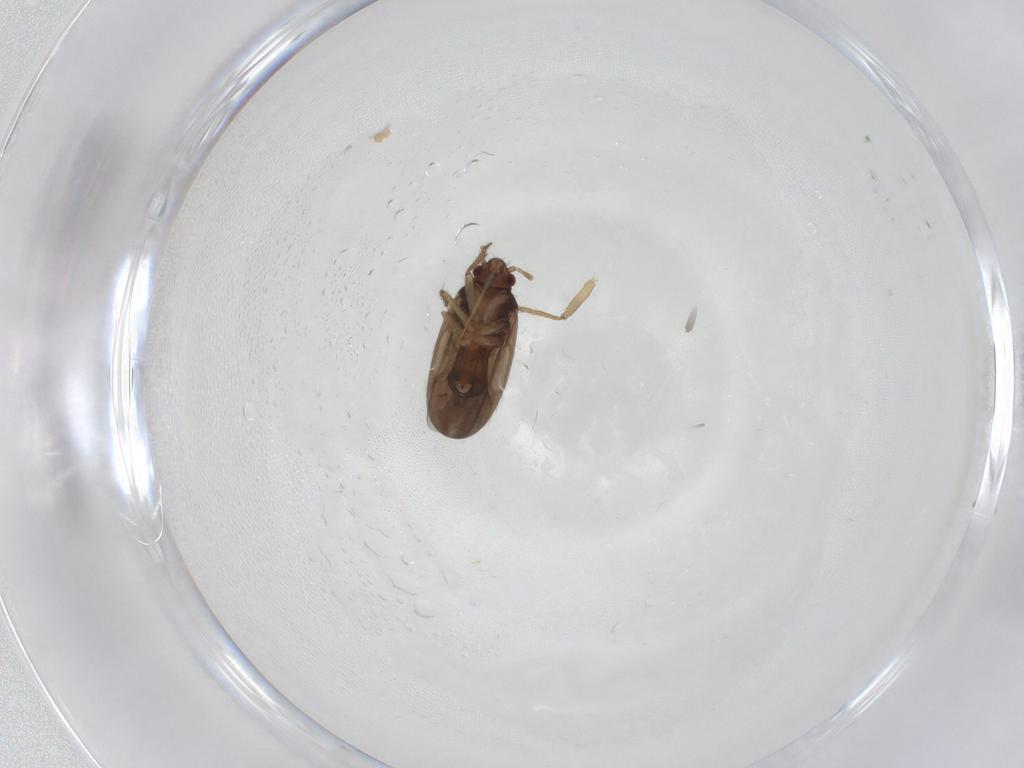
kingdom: Animalia
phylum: Arthropoda
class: Insecta
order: Hemiptera
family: Ceratocombidae
